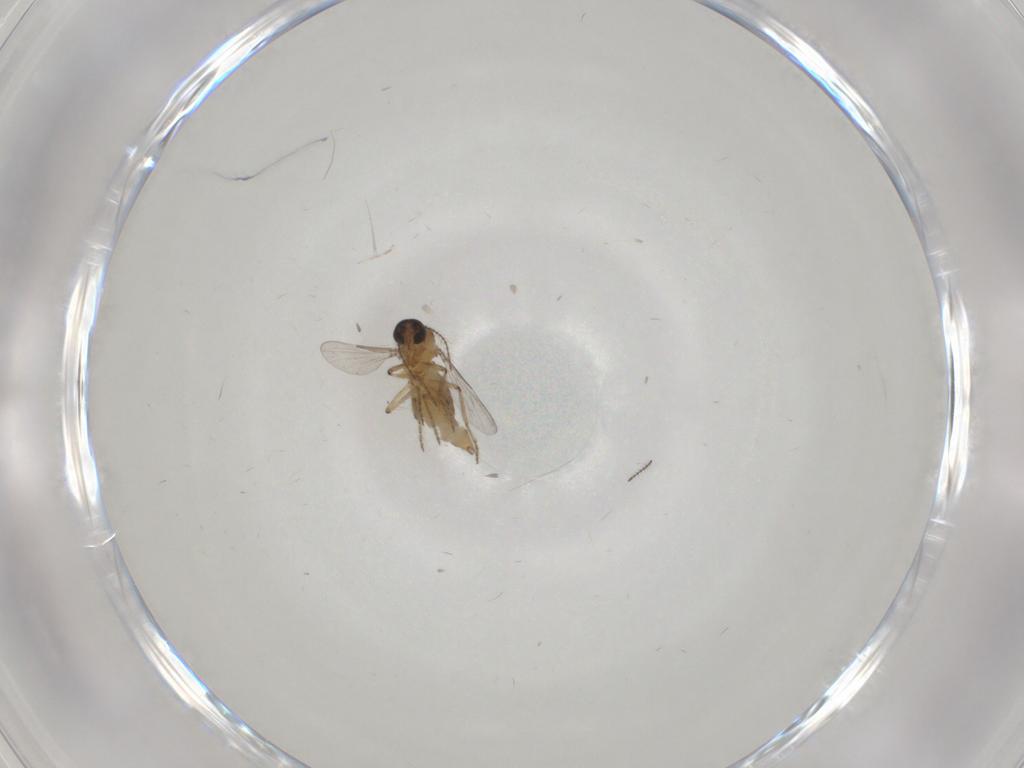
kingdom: Animalia
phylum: Arthropoda
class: Insecta
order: Diptera
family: Ceratopogonidae
